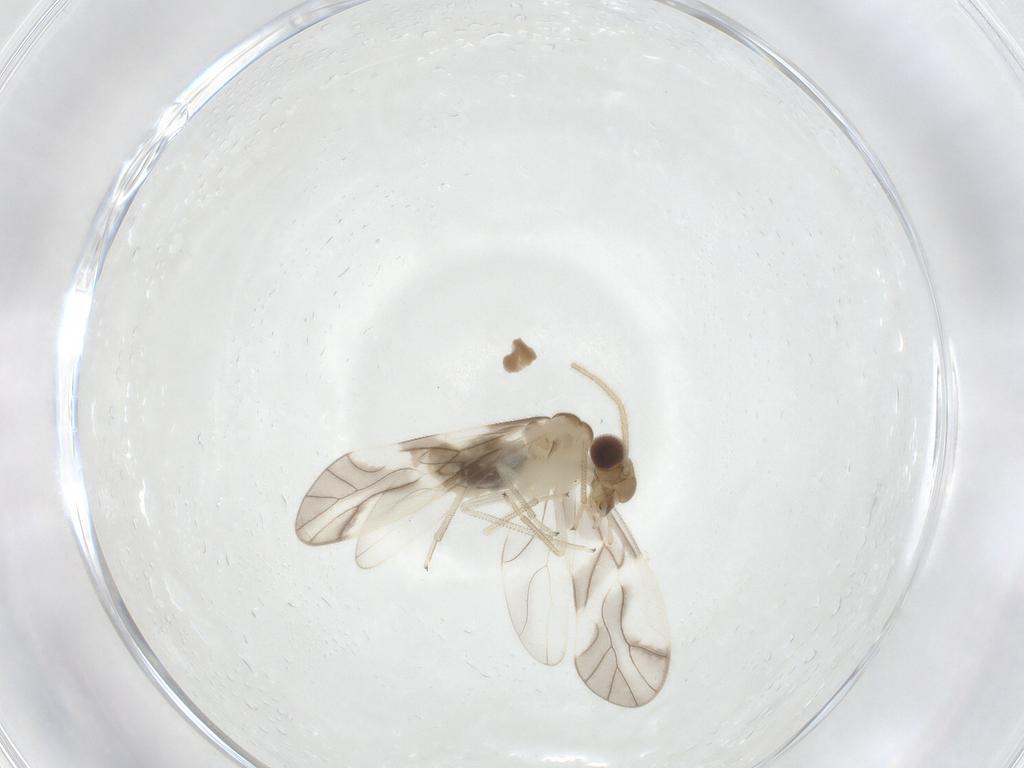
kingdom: Animalia
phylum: Arthropoda
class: Insecta
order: Psocodea
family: Caeciliusidae
